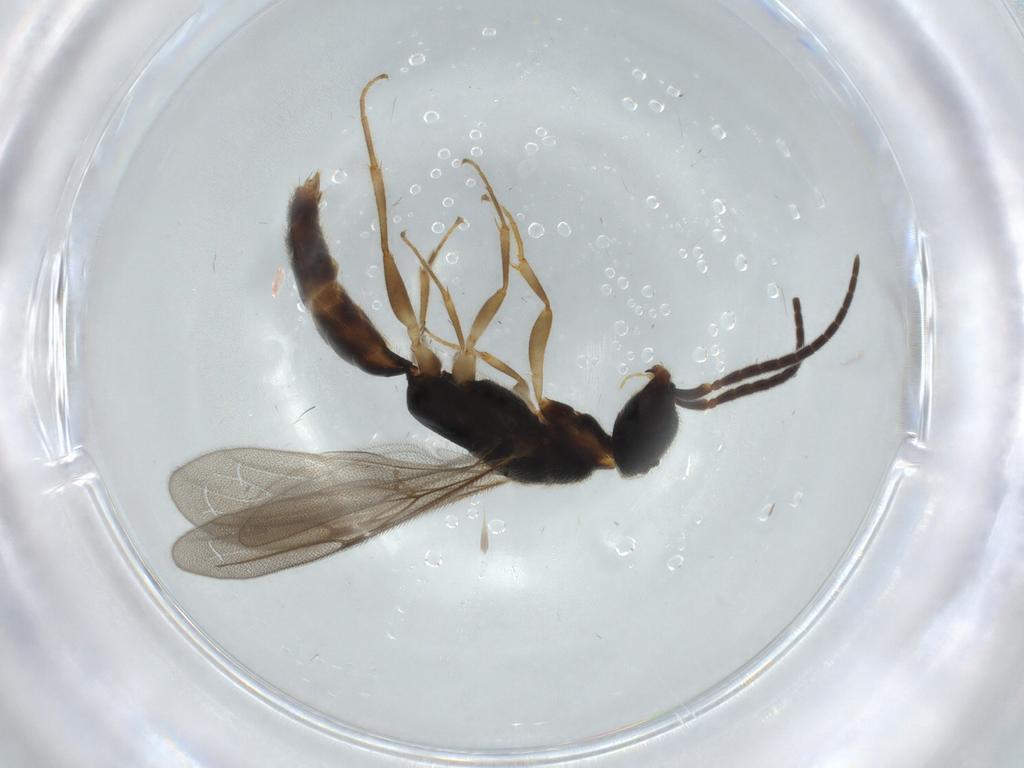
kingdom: Animalia
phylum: Arthropoda
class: Insecta
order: Hymenoptera
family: Bethylidae
